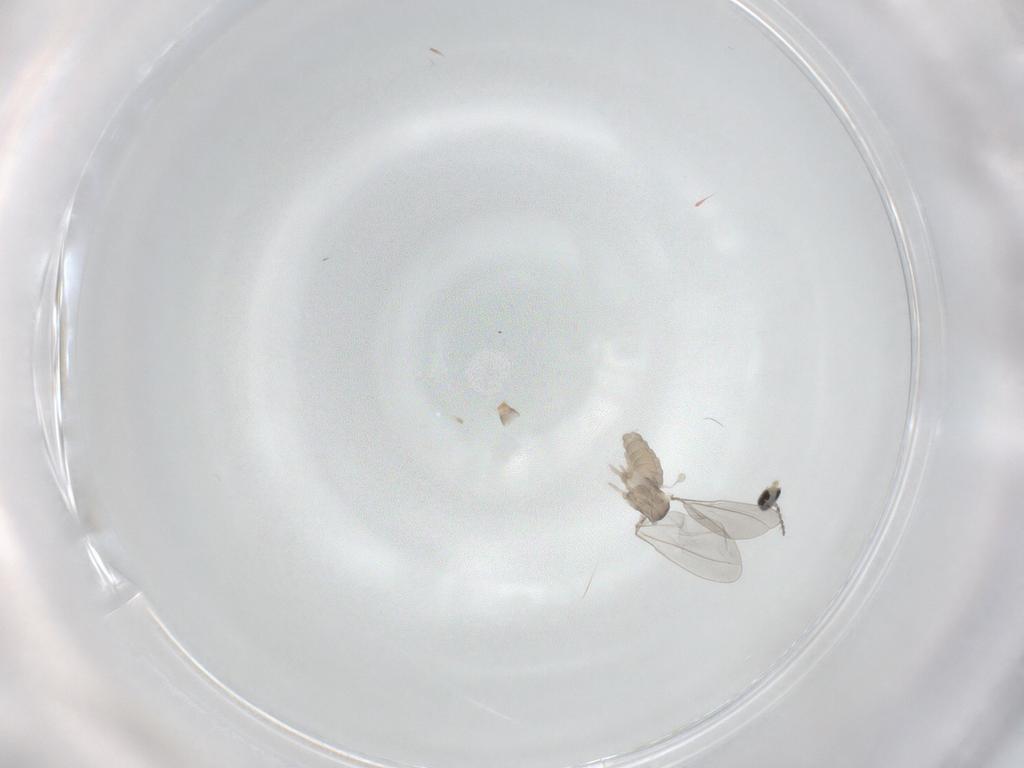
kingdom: Animalia
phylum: Arthropoda
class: Insecta
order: Diptera
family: Cecidomyiidae
